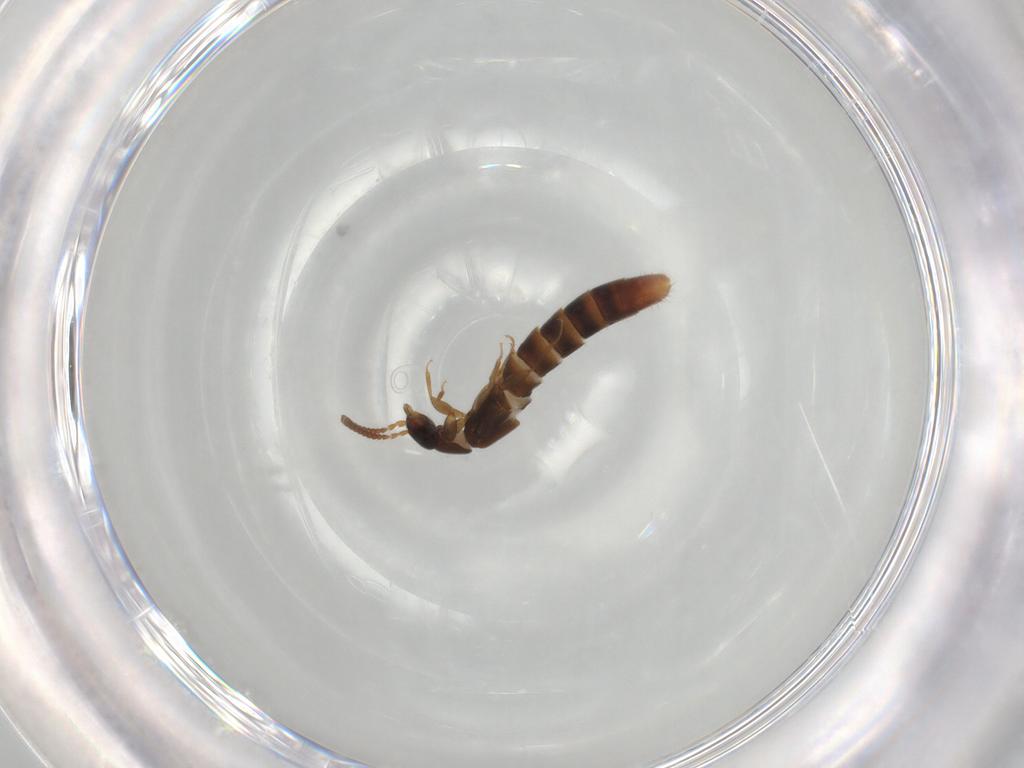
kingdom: Animalia
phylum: Arthropoda
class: Insecta
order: Coleoptera
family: Staphylinidae
